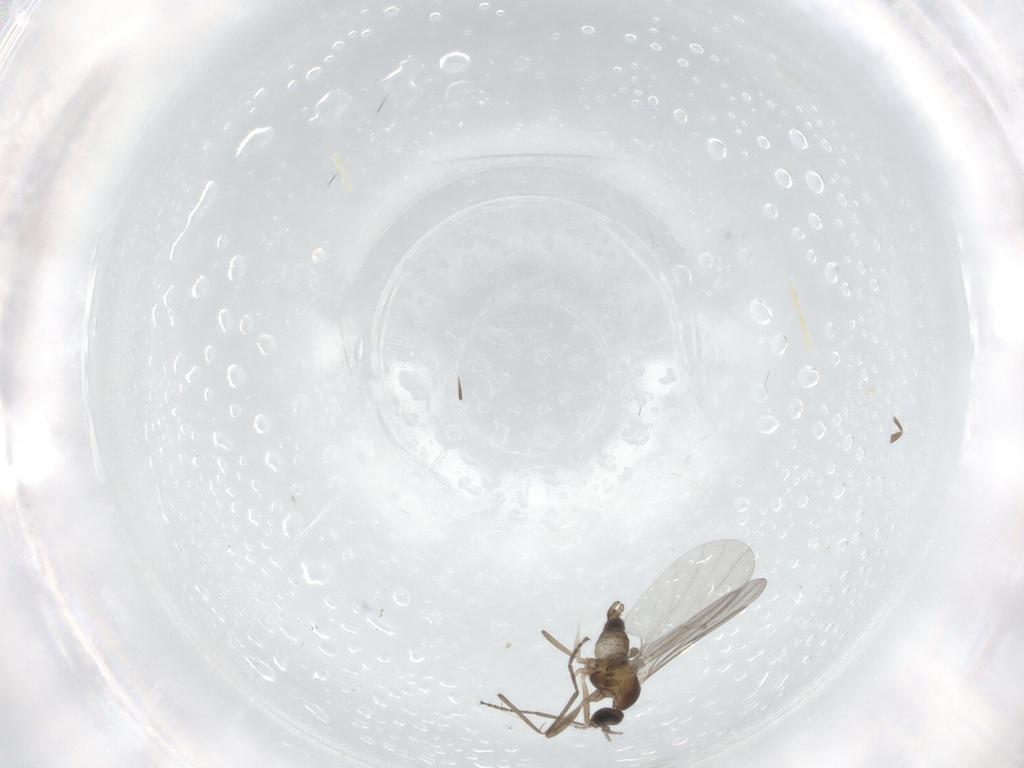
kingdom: Animalia
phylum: Arthropoda
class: Insecta
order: Diptera
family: Cecidomyiidae
